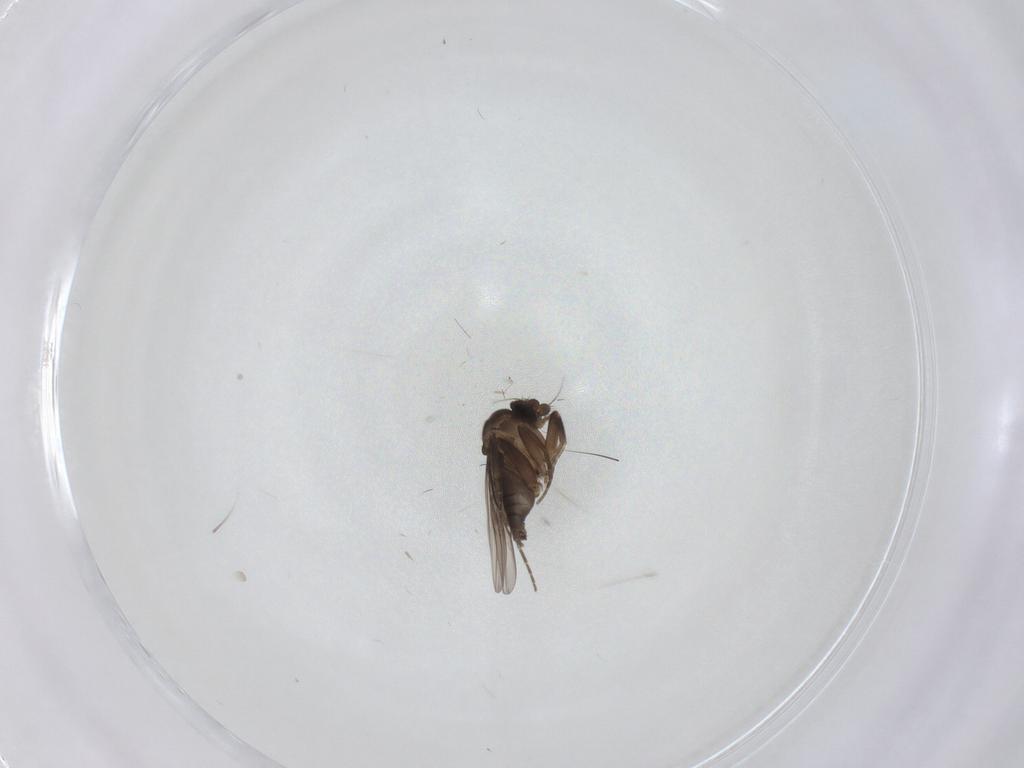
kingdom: Animalia
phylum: Arthropoda
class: Insecta
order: Diptera
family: Phoridae
